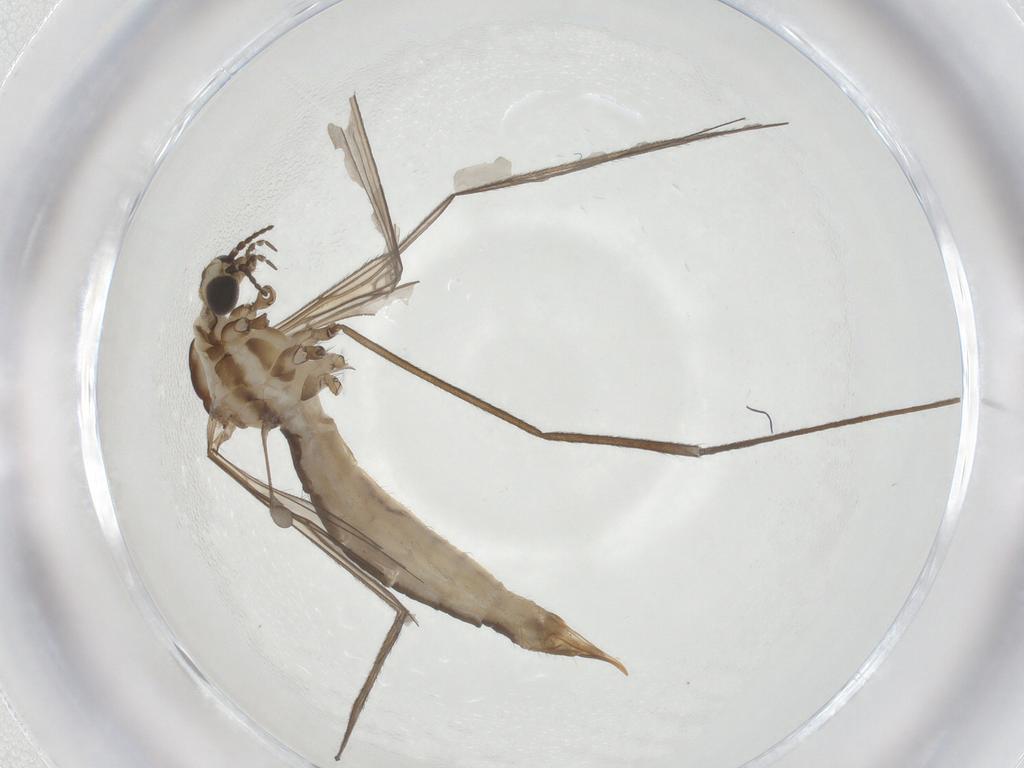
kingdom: Animalia
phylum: Arthropoda
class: Insecta
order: Diptera
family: Limoniidae
